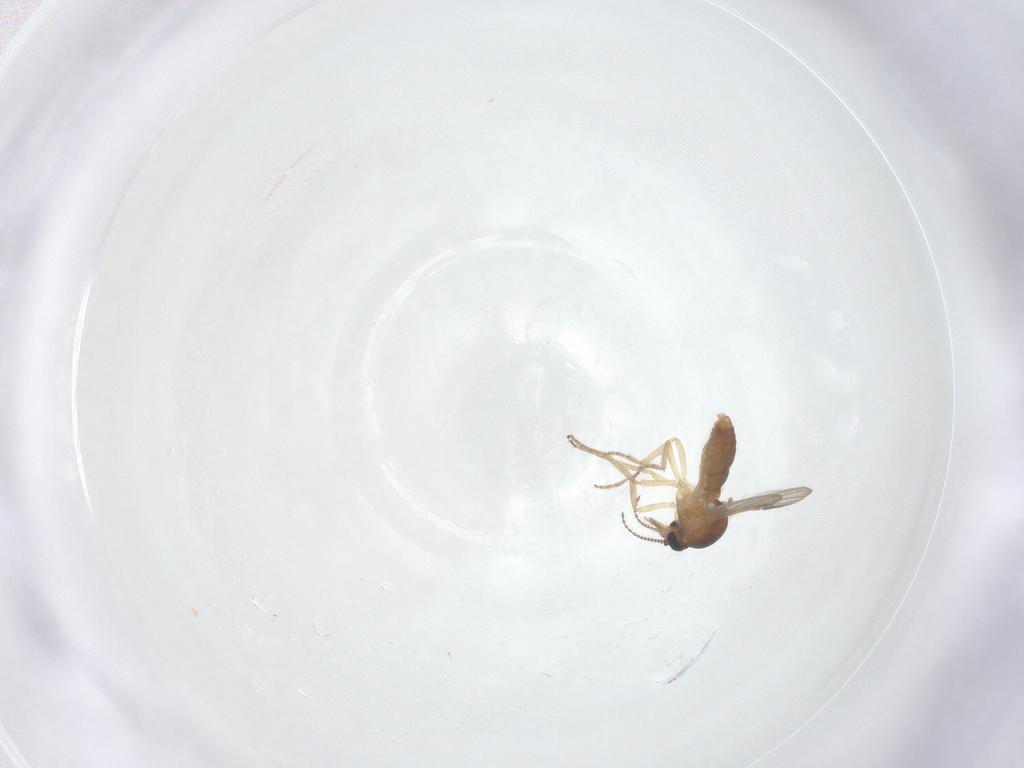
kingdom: Animalia
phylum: Arthropoda
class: Insecta
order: Diptera
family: Ceratopogonidae
